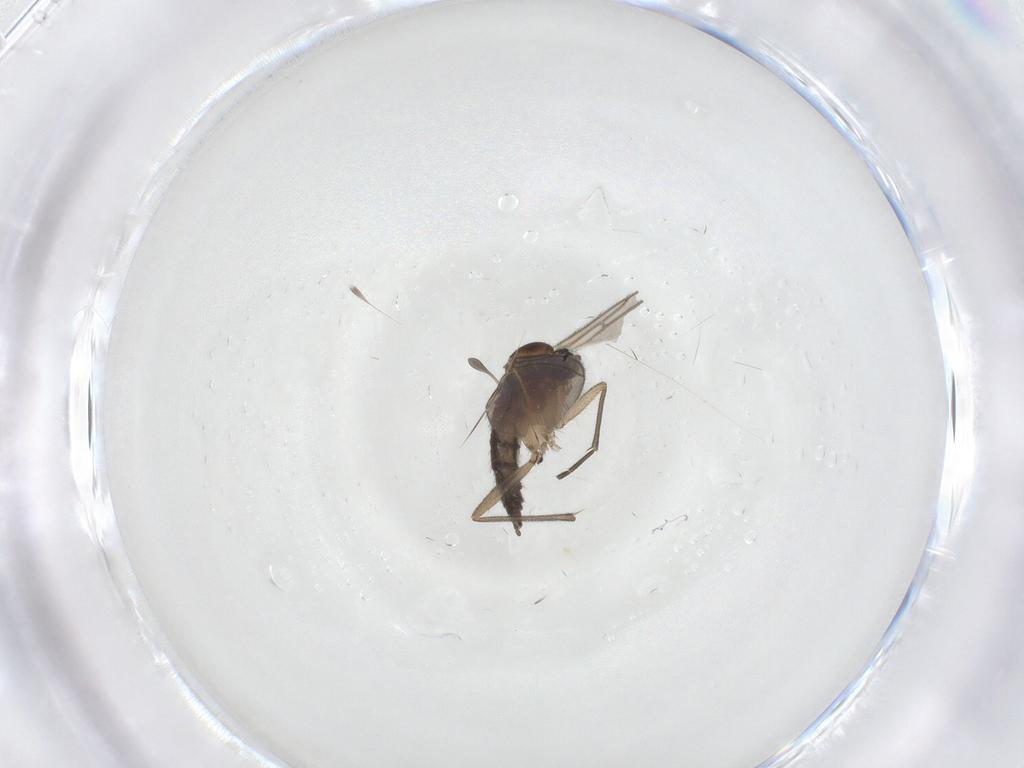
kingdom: Animalia
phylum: Arthropoda
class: Insecta
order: Diptera
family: Sciaridae
